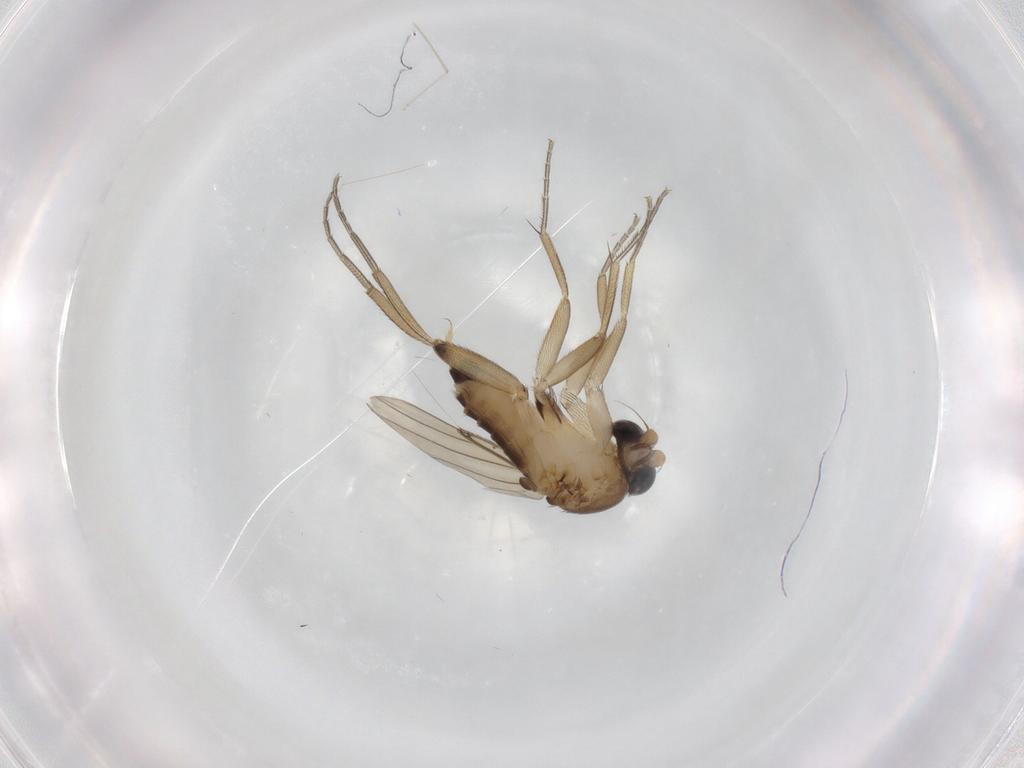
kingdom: Animalia
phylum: Arthropoda
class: Insecta
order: Diptera
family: Phoridae
